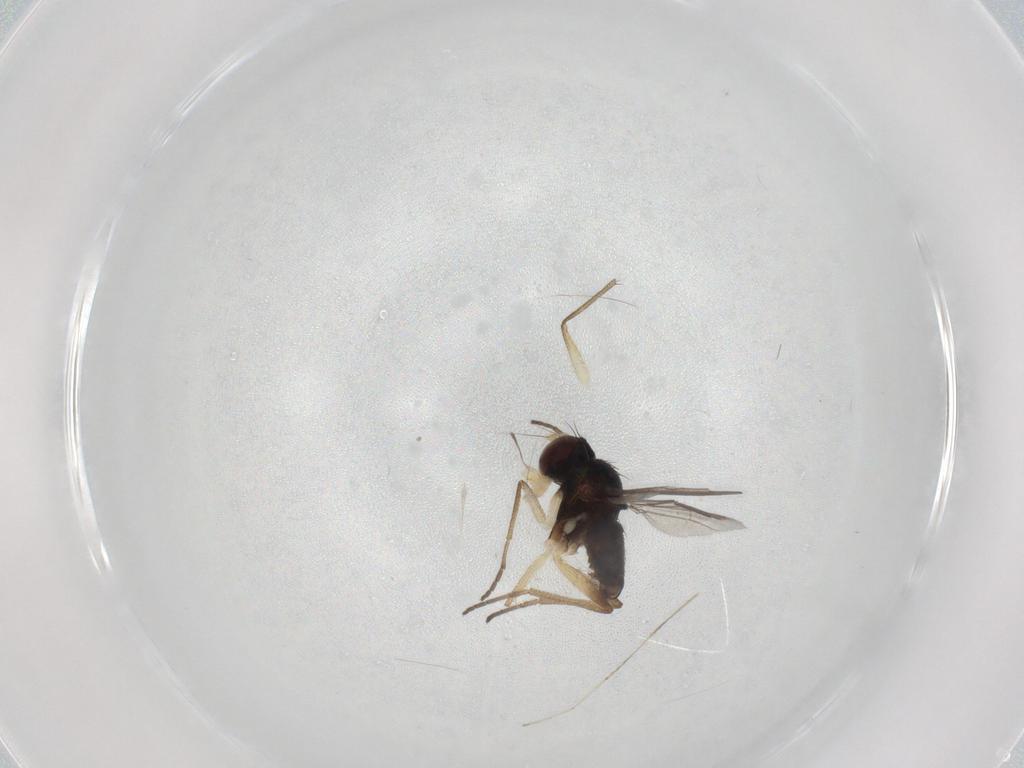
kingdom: Animalia
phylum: Arthropoda
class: Insecta
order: Diptera
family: Dolichopodidae
